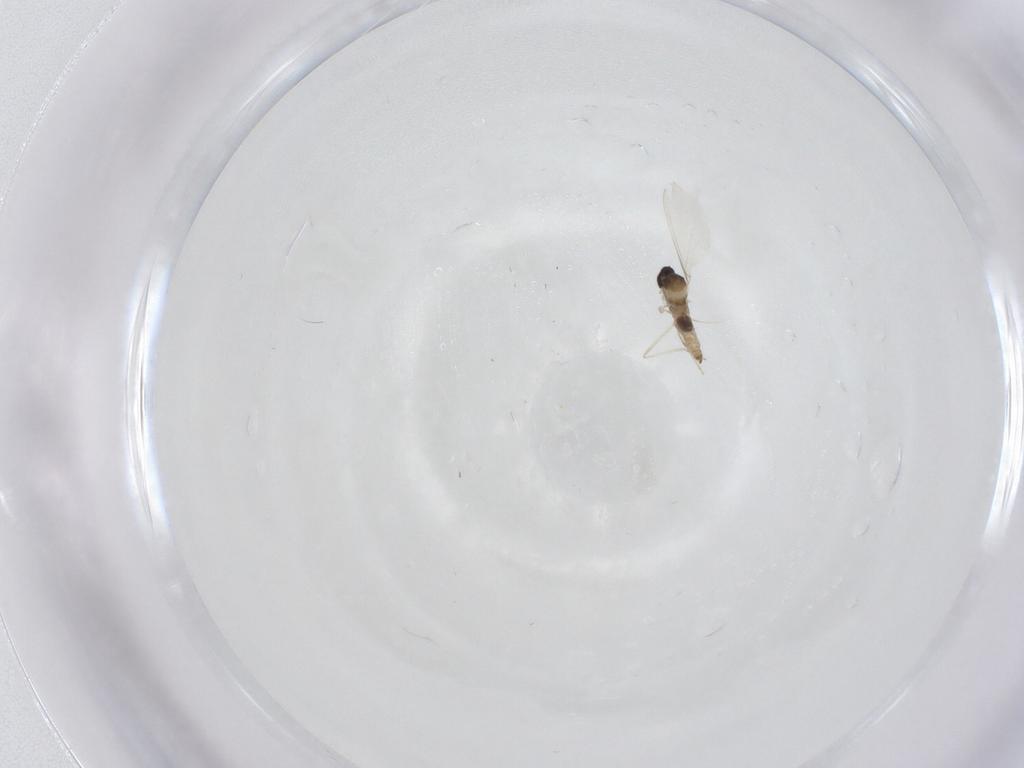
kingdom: Animalia
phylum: Arthropoda
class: Insecta
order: Diptera
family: Cecidomyiidae
